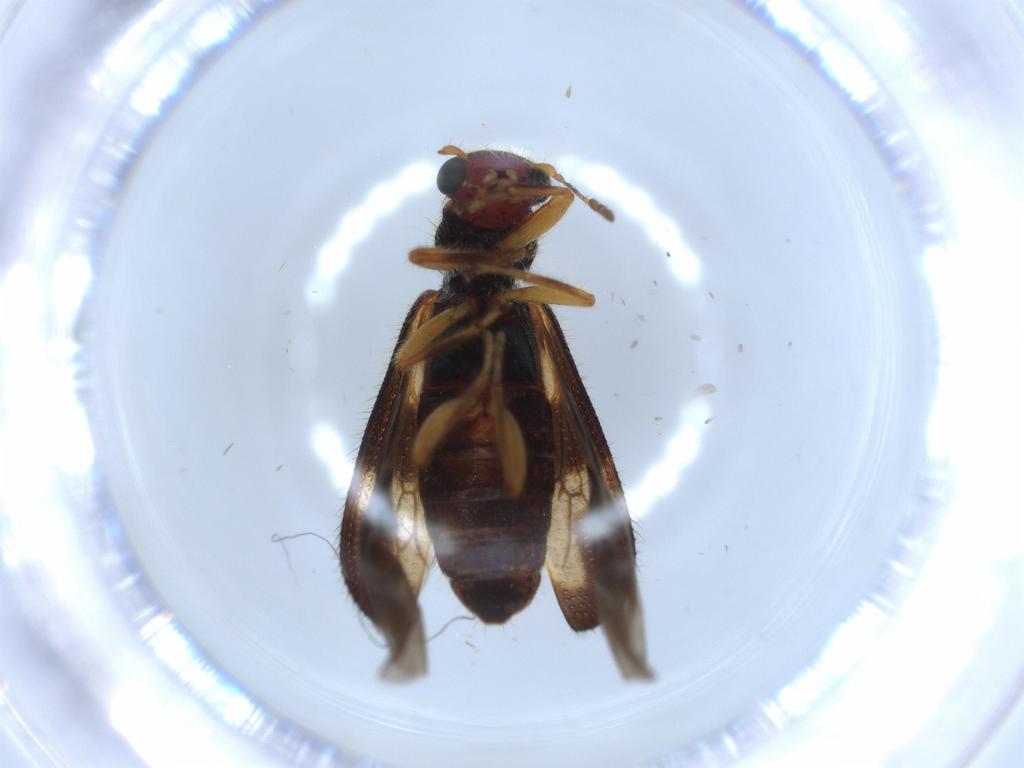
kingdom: Animalia
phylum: Arthropoda
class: Insecta
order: Coleoptera
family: Cleridae
